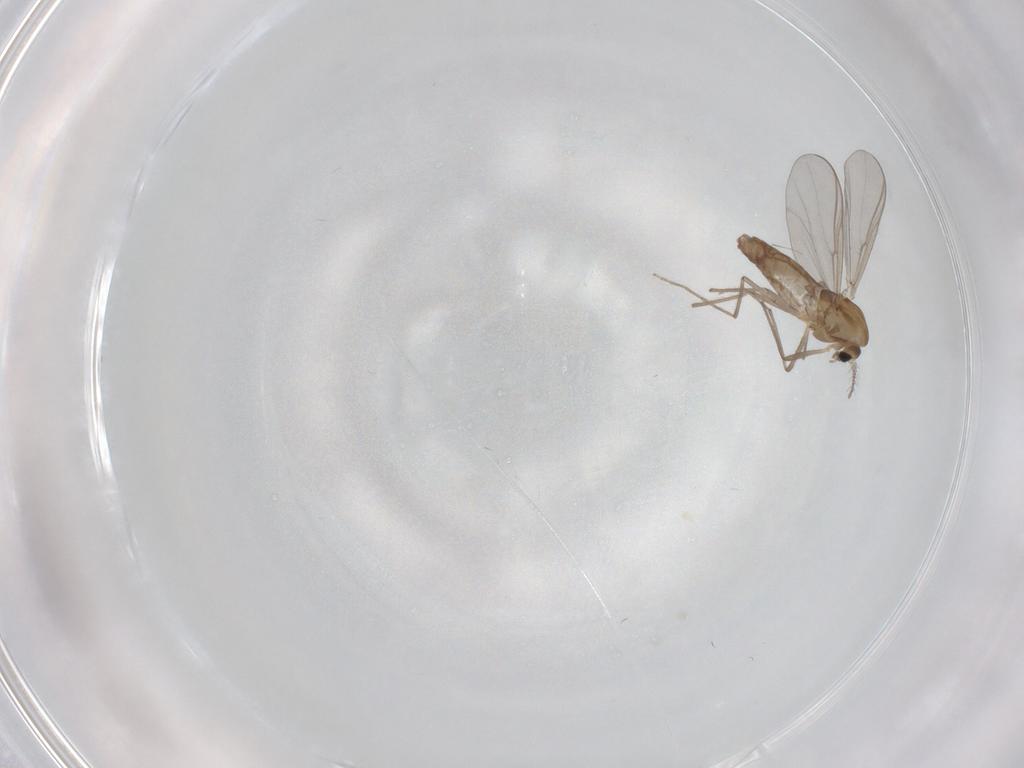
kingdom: Animalia
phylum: Arthropoda
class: Insecta
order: Diptera
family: Chironomidae
